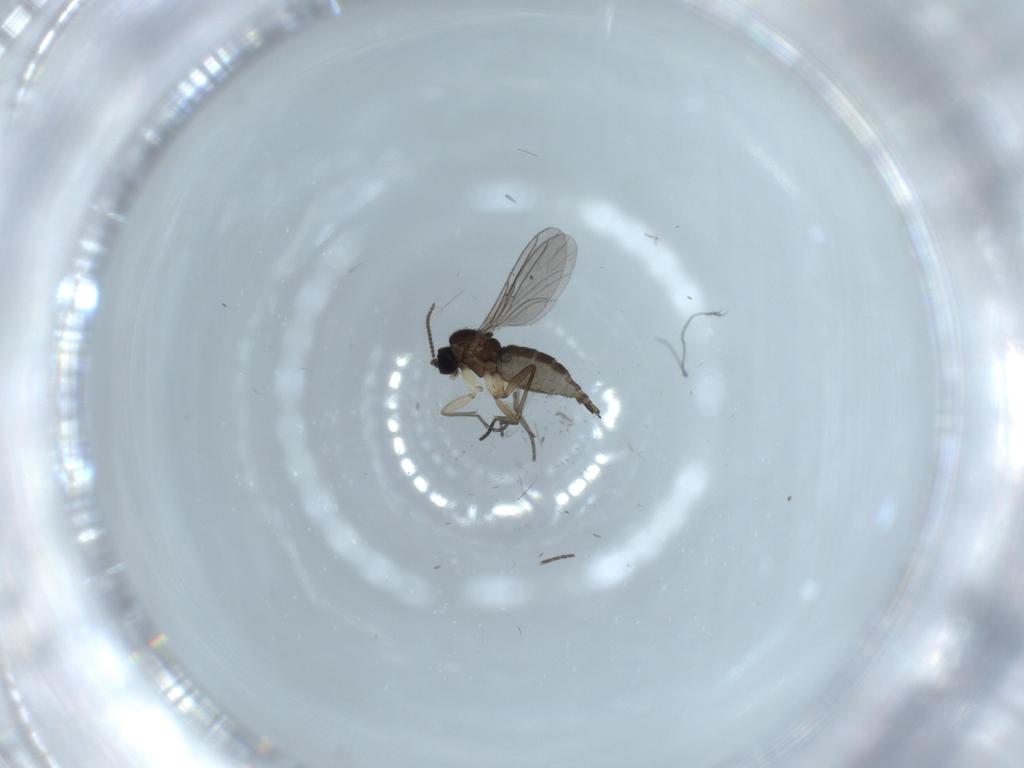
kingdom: Animalia
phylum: Arthropoda
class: Insecta
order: Diptera
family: Sciaridae
